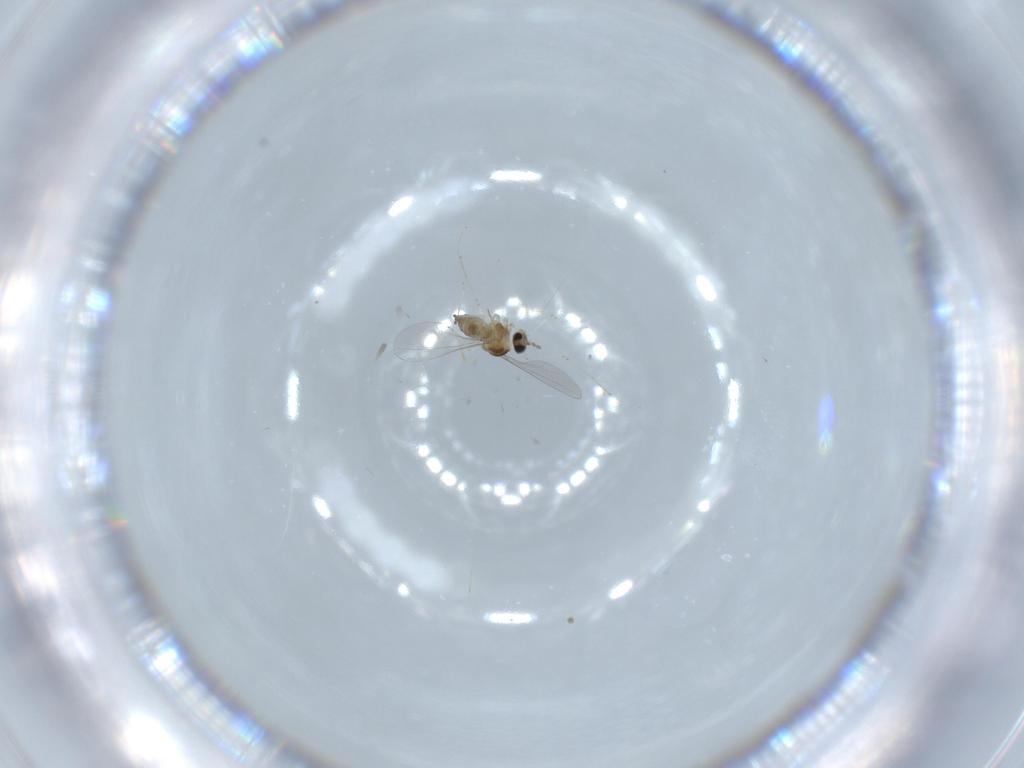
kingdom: Animalia
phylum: Arthropoda
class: Insecta
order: Diptera
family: Cecidomyiidae
